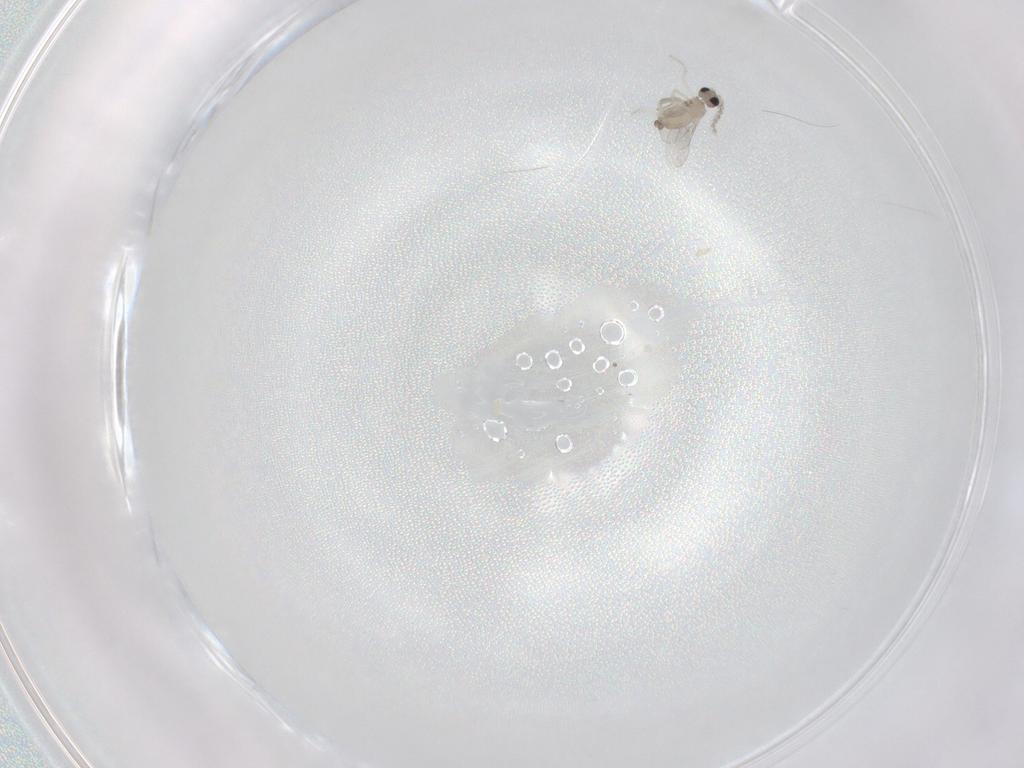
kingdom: Animalia
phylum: Arthropoda
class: Insecta
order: Diptera
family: Cecidomyiidae
